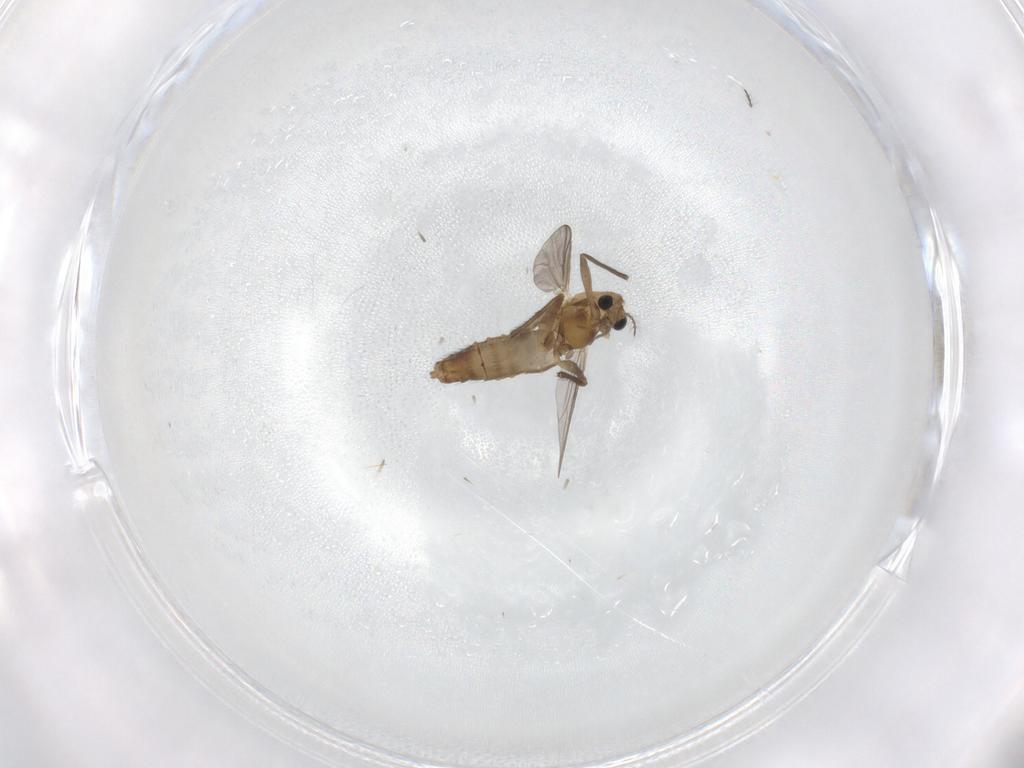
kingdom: Animalia
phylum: Arthropoda
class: Insecta
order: Diptera
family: Chironomidae
